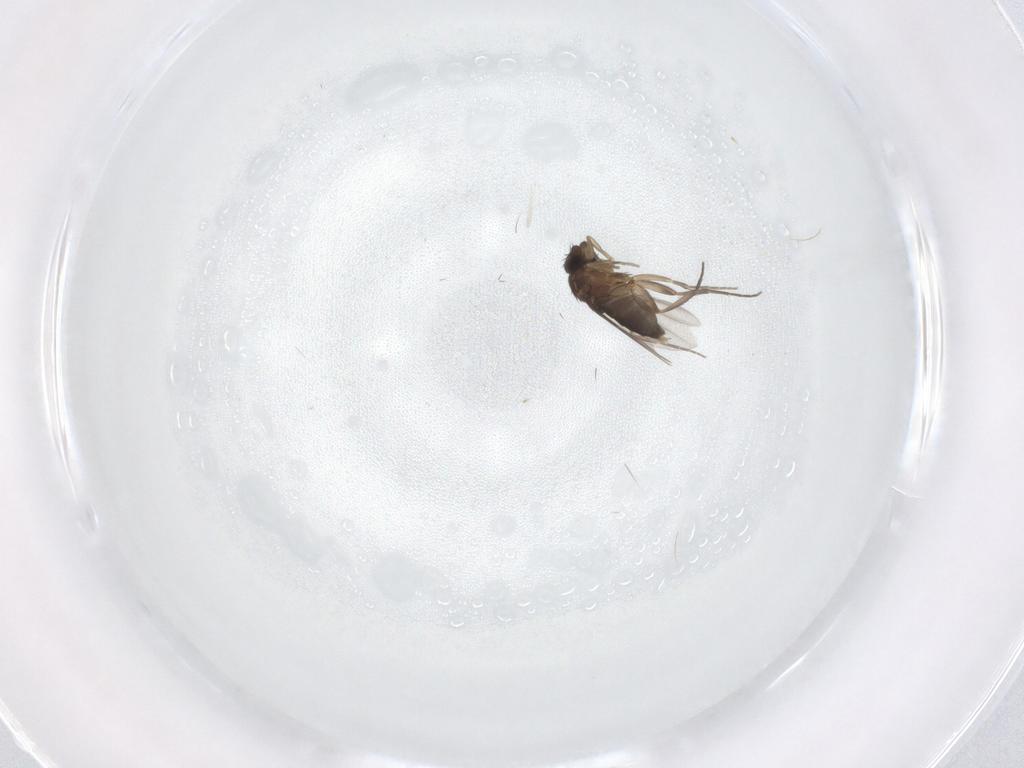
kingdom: Animalia
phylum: Arthropoda
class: Insecta
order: Diptera
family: Phoridae
